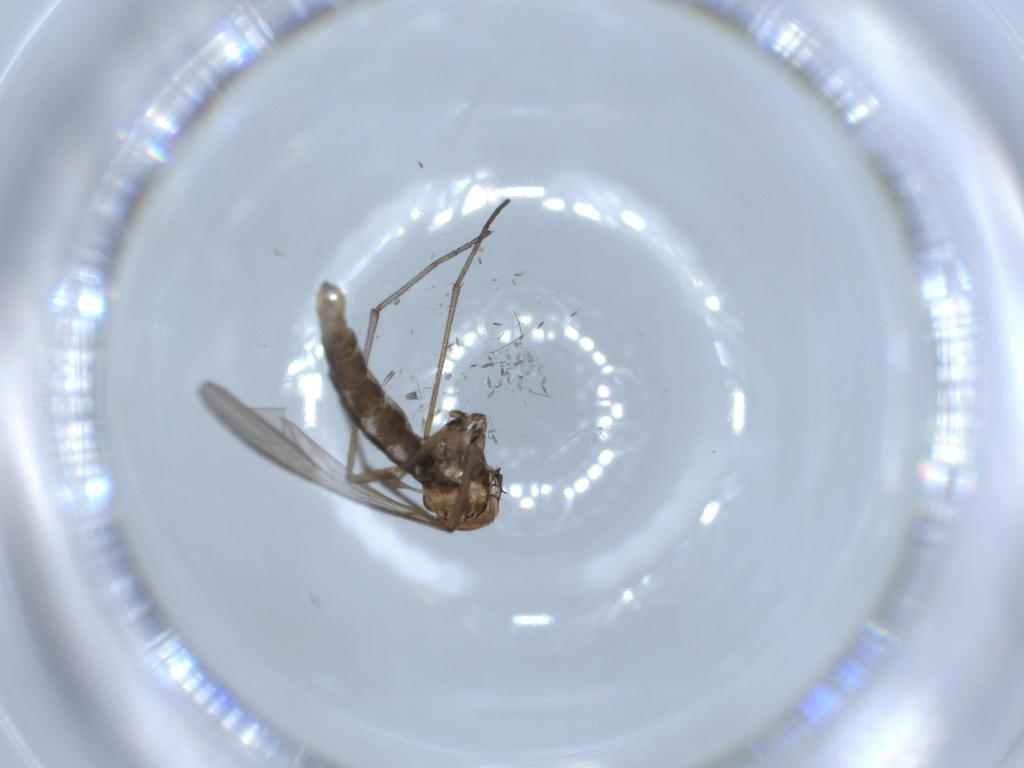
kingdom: Animalia
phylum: Arthropoda
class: Insecta
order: Diptera
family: Sciaridae
